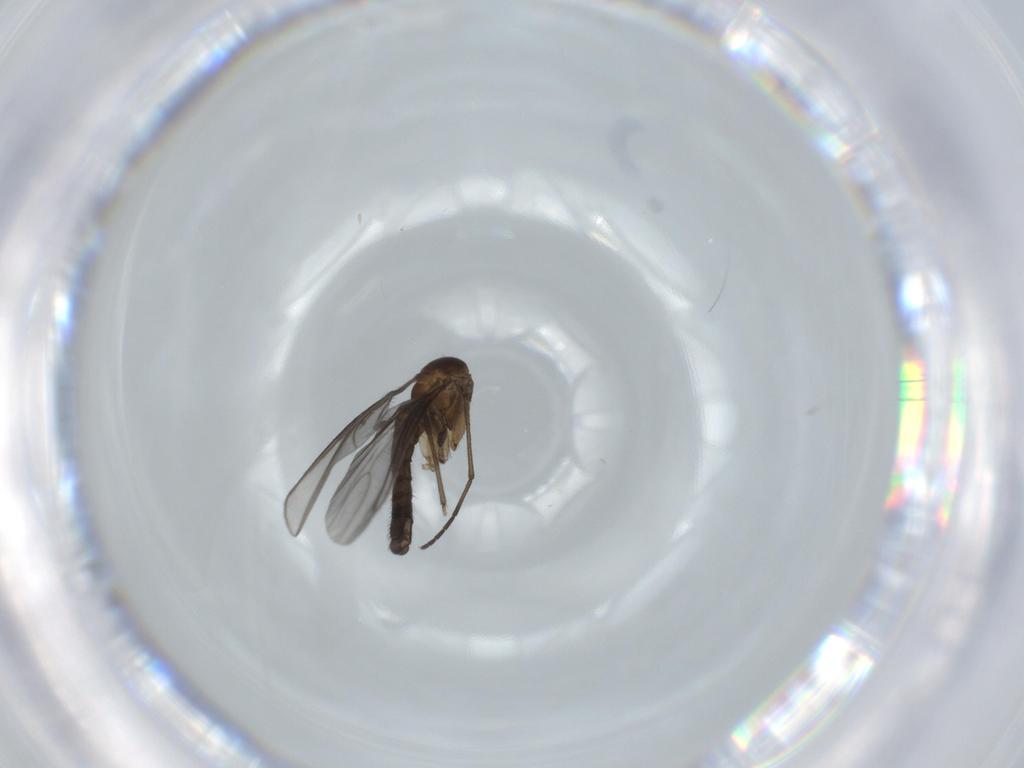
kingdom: Animalia
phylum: Arthropoda
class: Insecta
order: Diptera
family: Sciaridae
